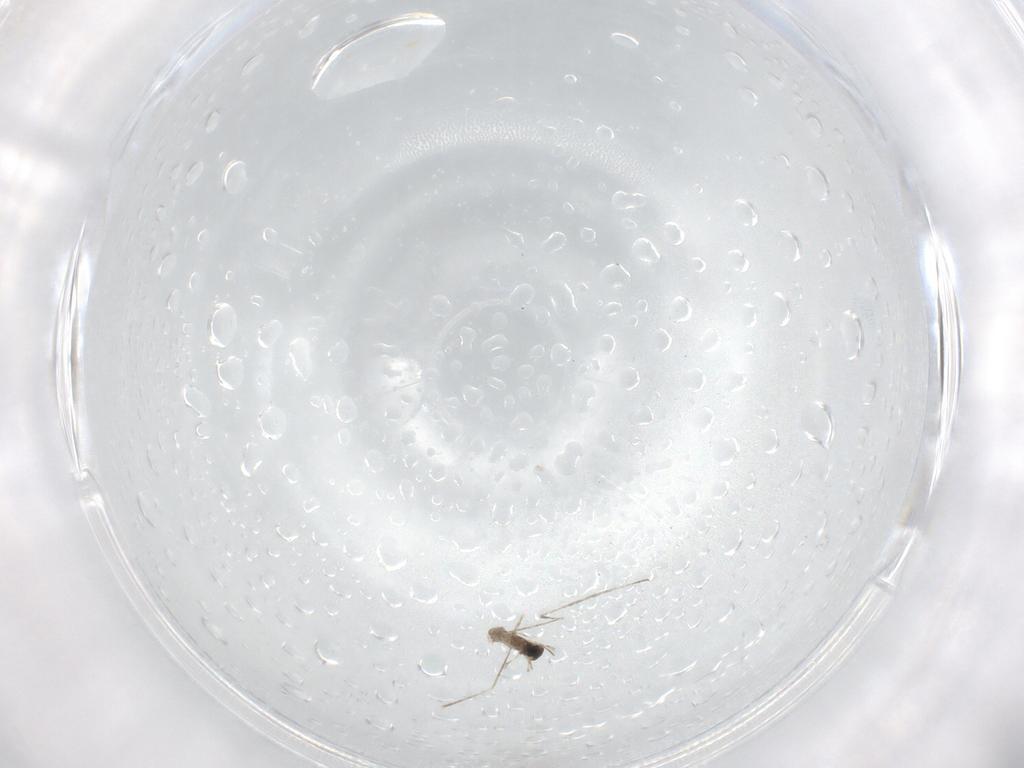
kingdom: Animalia
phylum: Arthropoda
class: Insecta
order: Diptera
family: Cecidomyiidae
